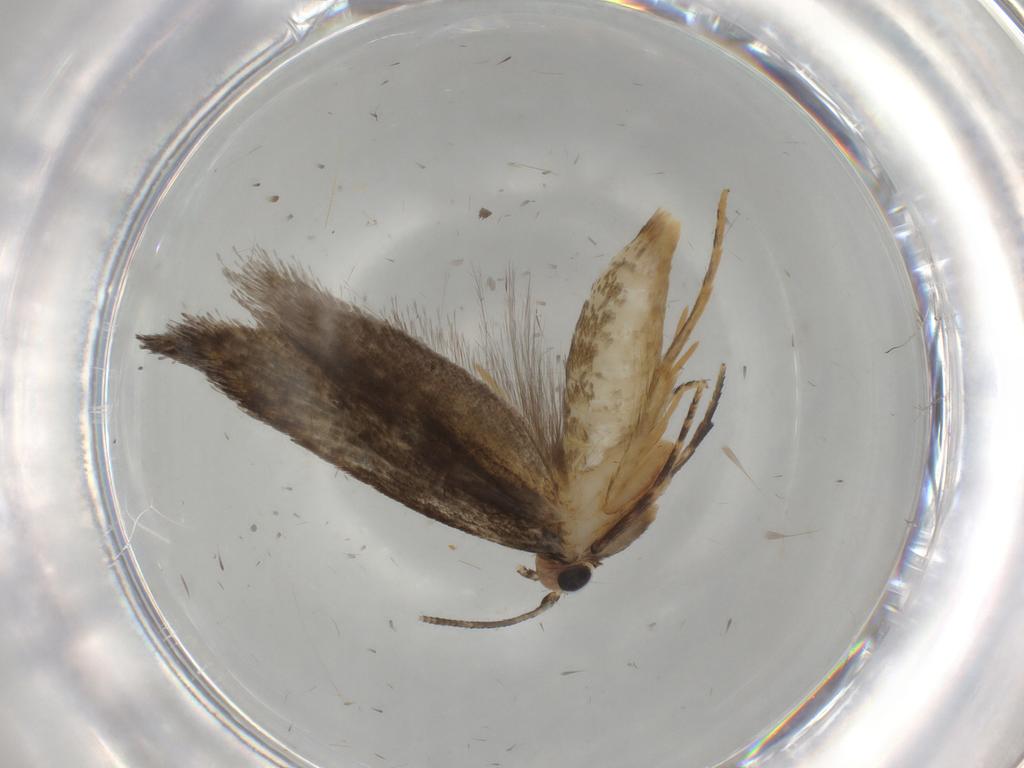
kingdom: Animalia
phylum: Arthropoda
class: Insecta
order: Lepidoptera
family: Tineidae
